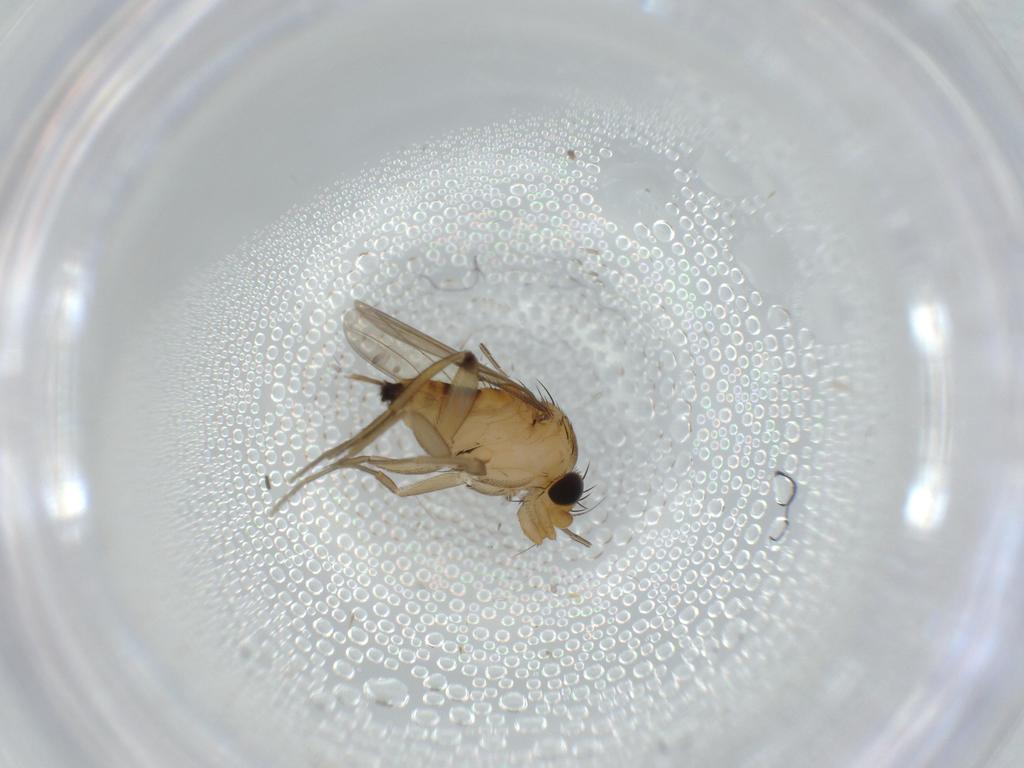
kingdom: Animalia
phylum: Arthropoda
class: Insecta
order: Diptera
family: Phoridae
